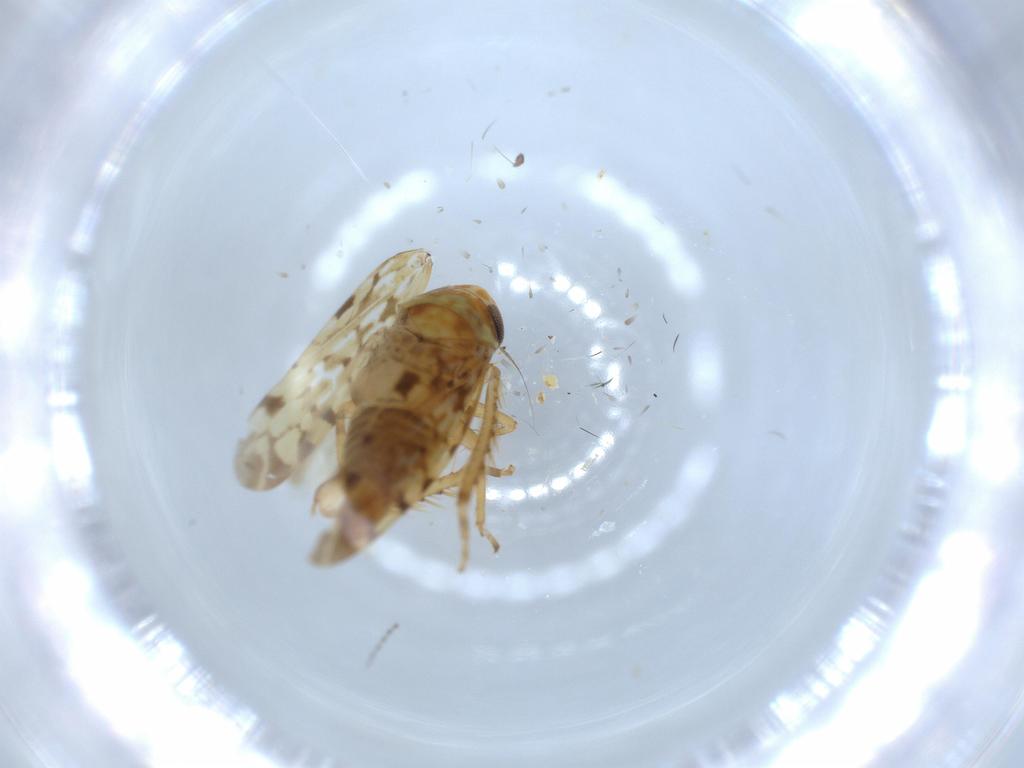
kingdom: Animalia
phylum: Arthropoda
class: Insecta
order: Hemiptera
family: Cicadellidae
